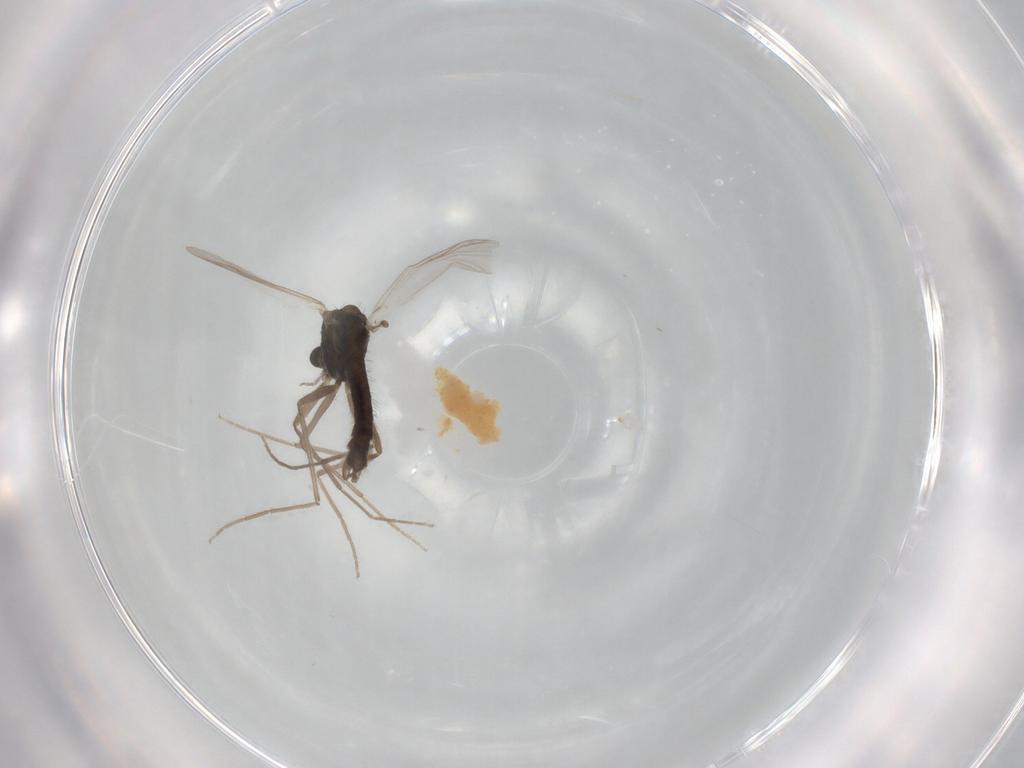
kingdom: Animalia
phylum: Arthropoda
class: Insecta
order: Diptera
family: Chironomidae
